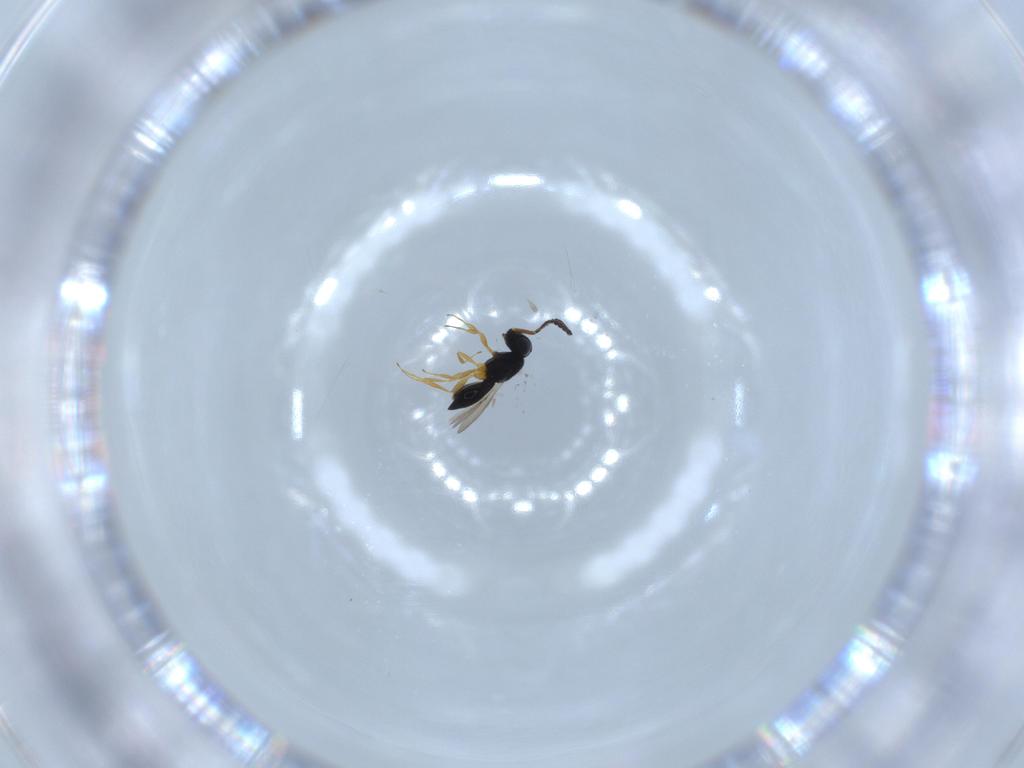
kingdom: Animalia
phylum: Arthropoda
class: Insecta
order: Hymenoptera
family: Scelionidae
